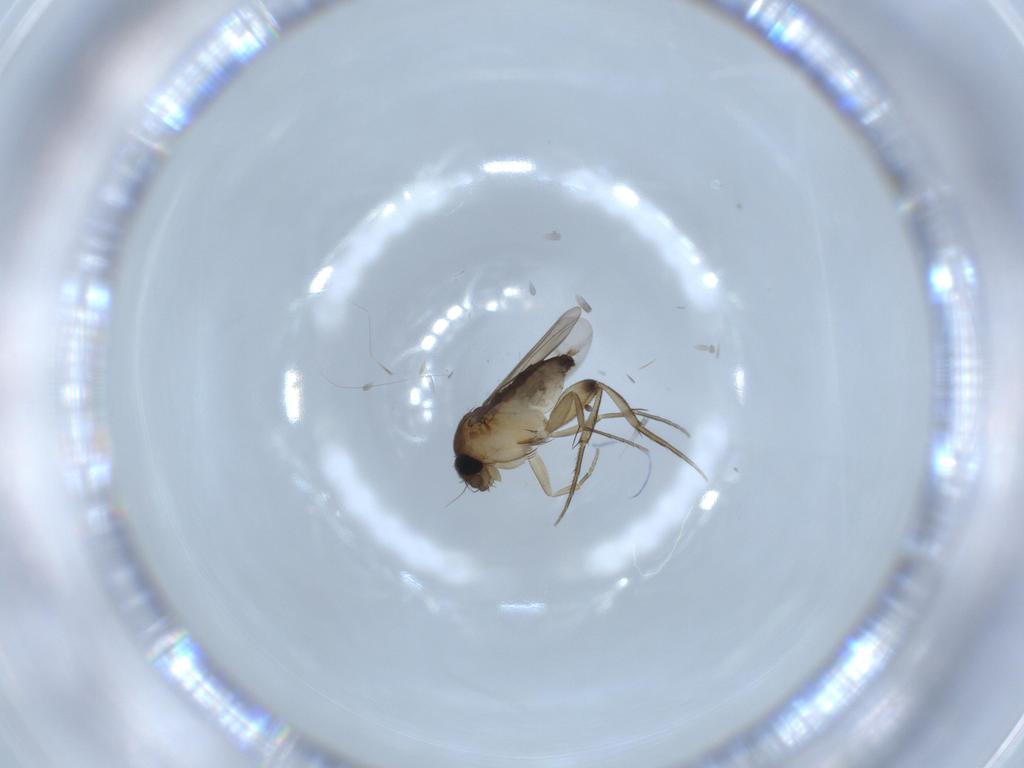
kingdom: Animalia
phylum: Arthropoda
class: Insecta
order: Diptera
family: Phoridae
